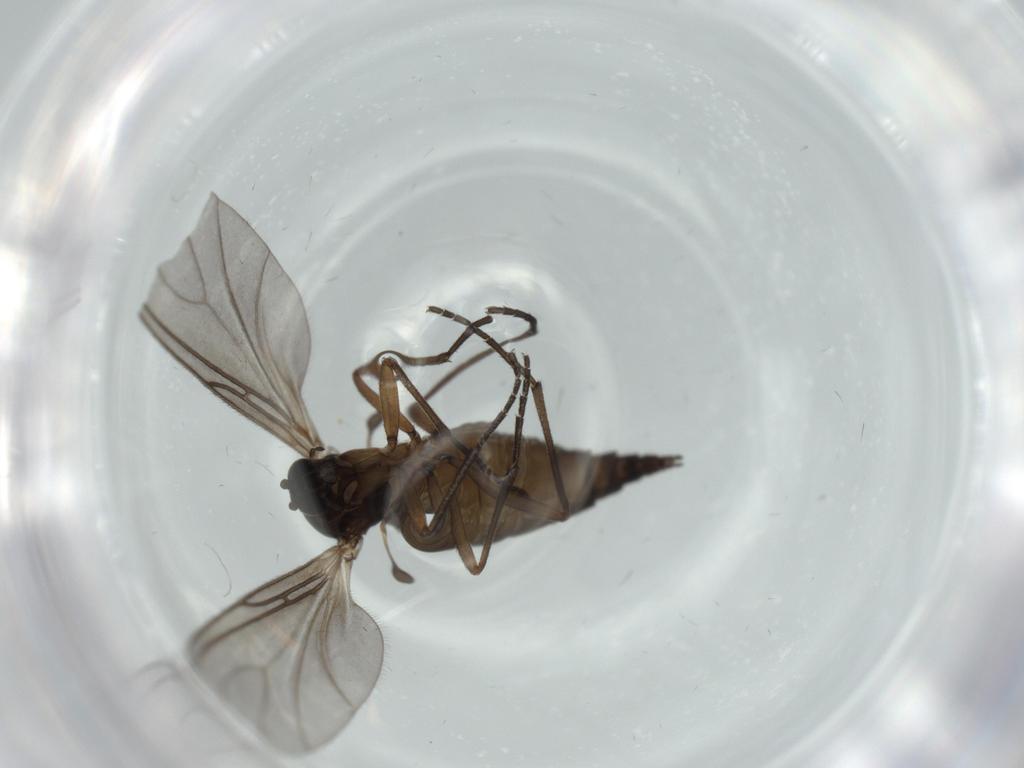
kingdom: Animalia
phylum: Arthropoda
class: Insecta
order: Diptera
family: Sciaridae
